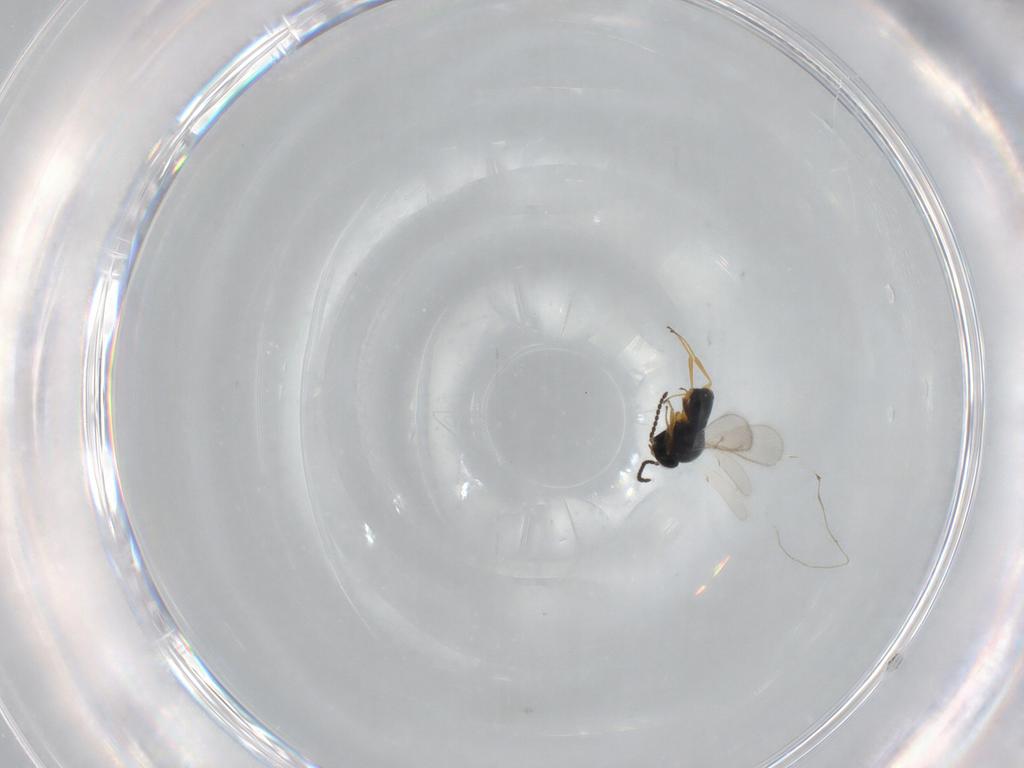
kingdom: Animalia
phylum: Arthropoda
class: Insecta
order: Hymenoptera
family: Scelionidae
